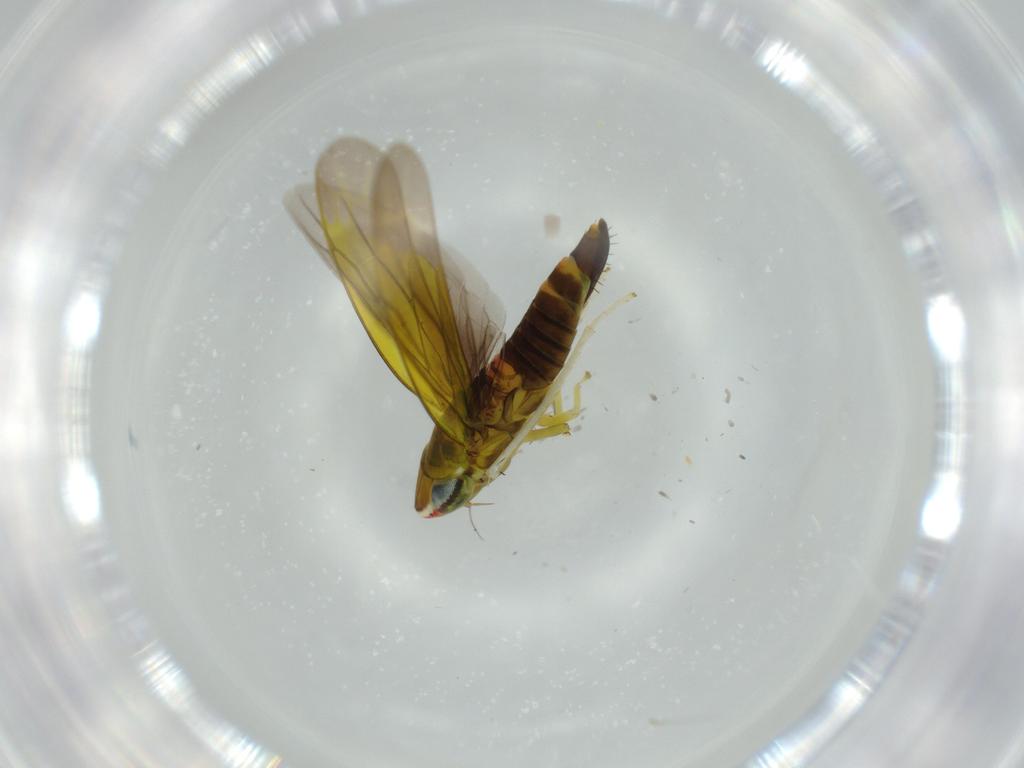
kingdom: Animalia
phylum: Arthropoda
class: Insecta
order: Hemiptera
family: Cicadellidae
